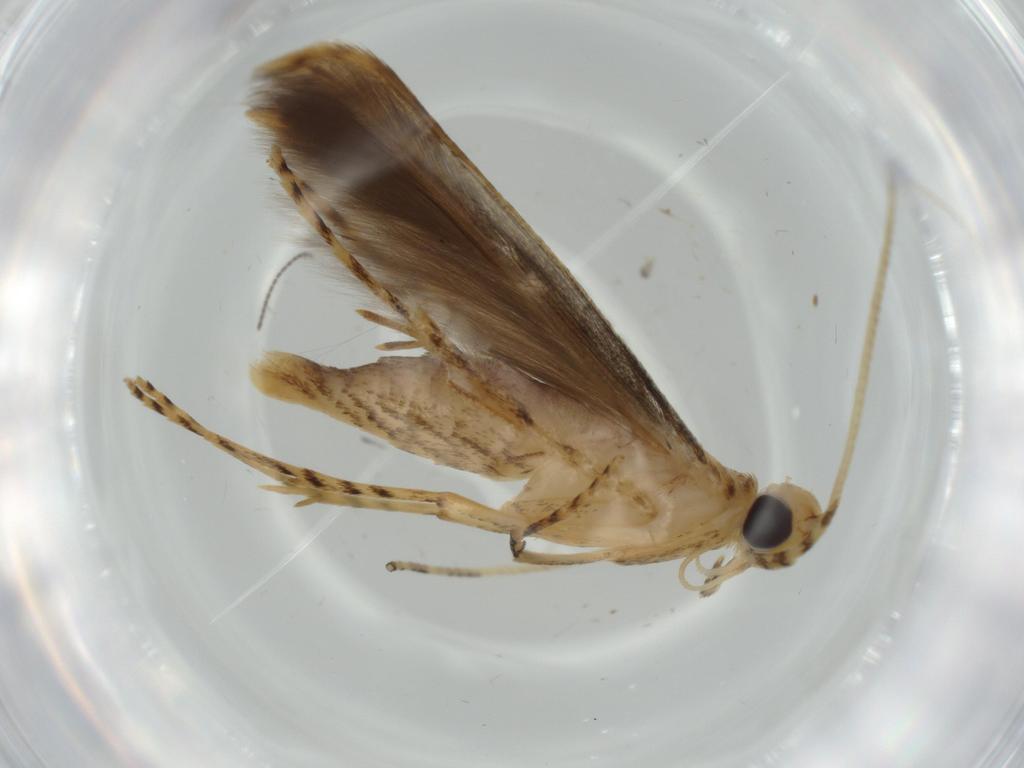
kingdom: Animalia
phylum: Arthropoda
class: Insecta
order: Lepidoptera
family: Batrachedridae
